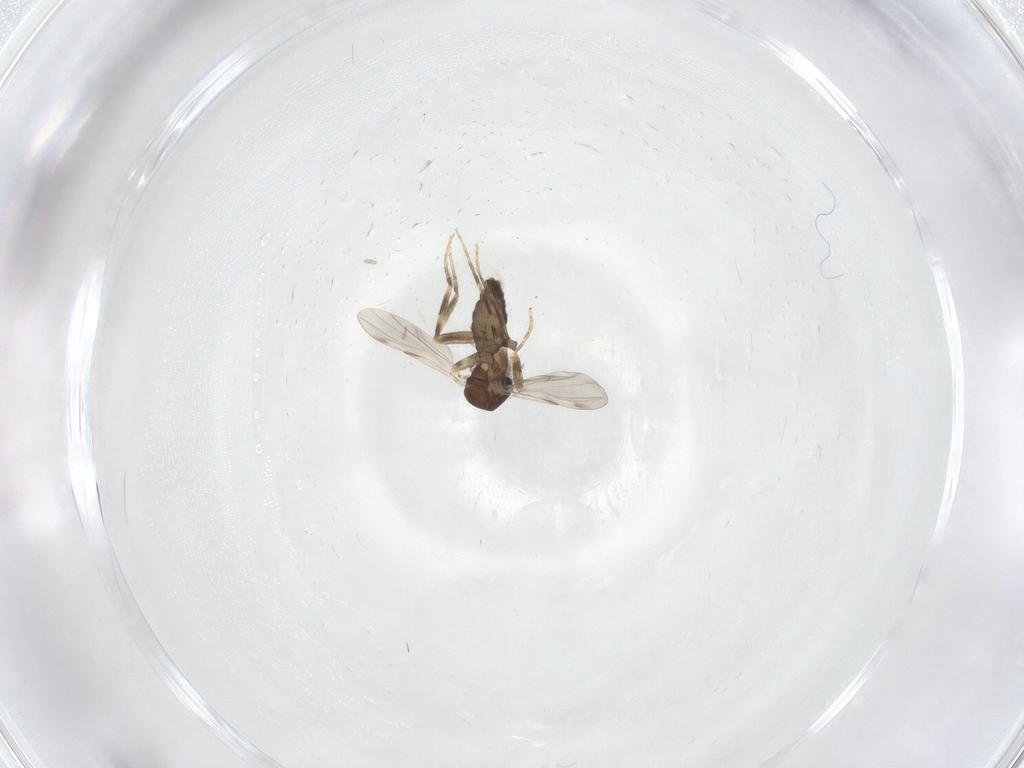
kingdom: Animalia
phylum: Arthropoda
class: Insecta
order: Diptera
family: Ceratopogonidae
